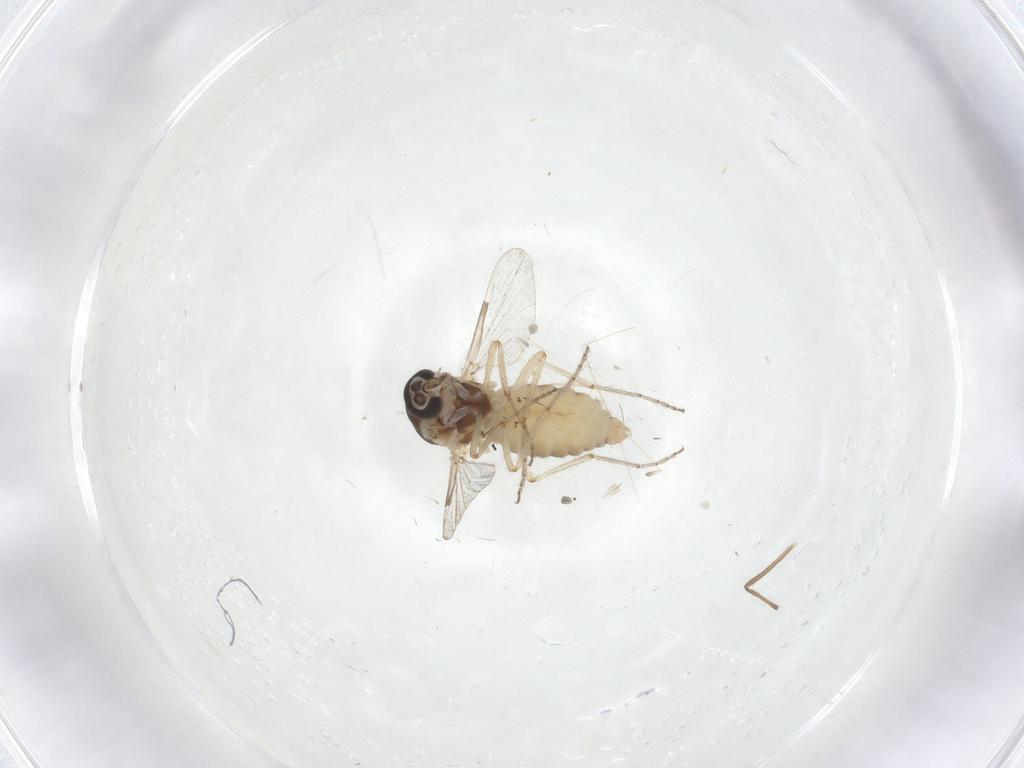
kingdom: Animalia
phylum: Arthropoda
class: Insecta
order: Diptera
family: Ceratopogonidae
